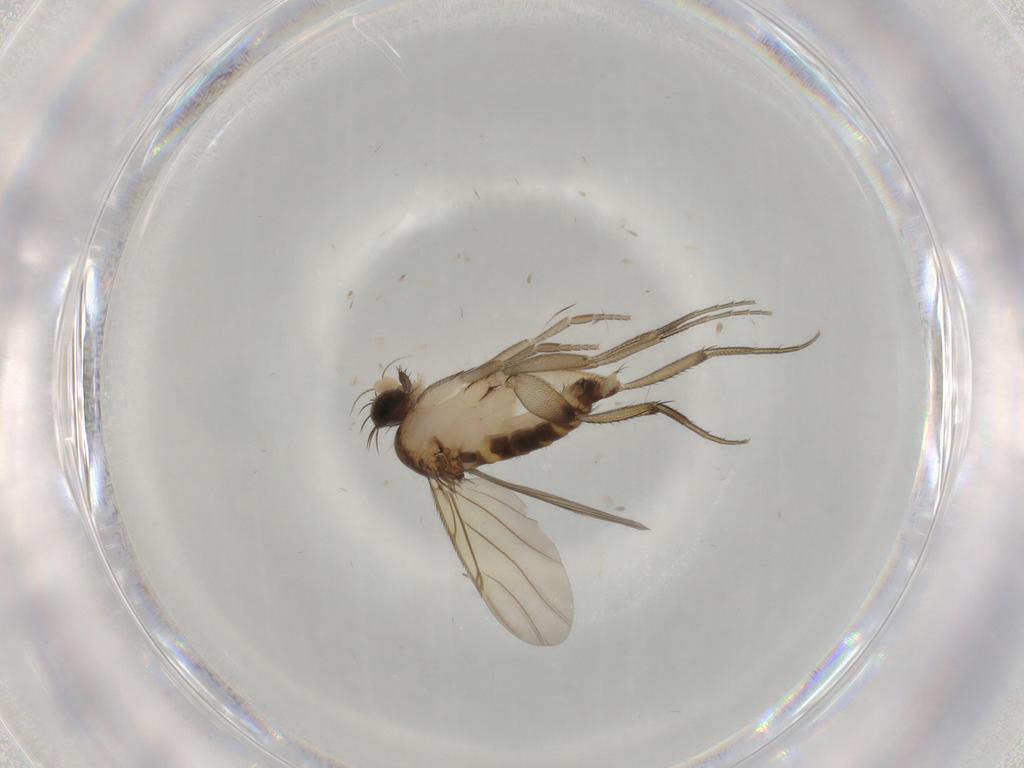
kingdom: Animalia
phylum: Arthropoda
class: Insecta
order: Diptera
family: Phoridae
